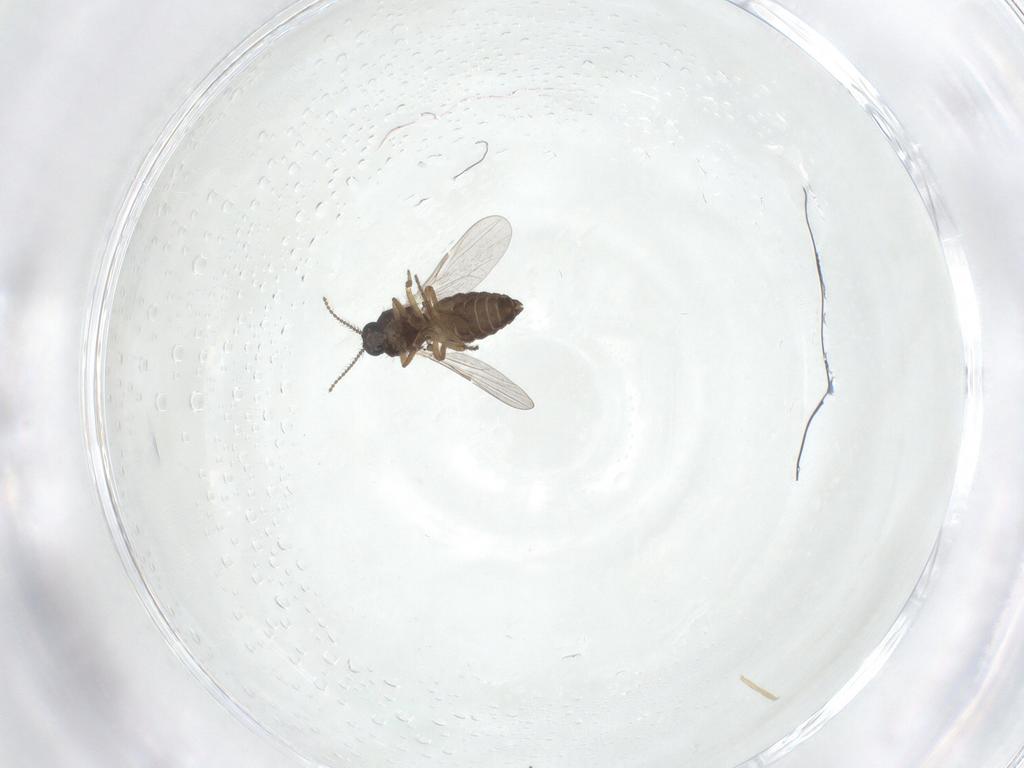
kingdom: Animalia
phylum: Arthropoda
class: Insecta
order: Diptera
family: Ceratopogonidae
